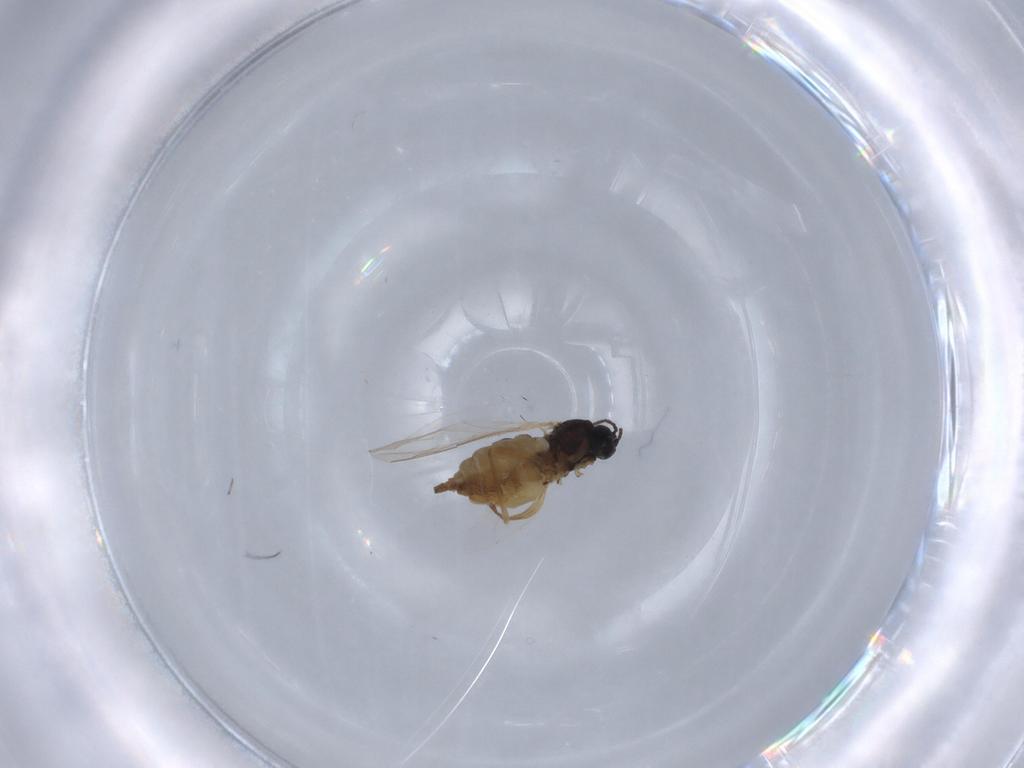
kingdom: Animalia
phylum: Arthropoda
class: Insecta
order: Diptera
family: Sciaridae
